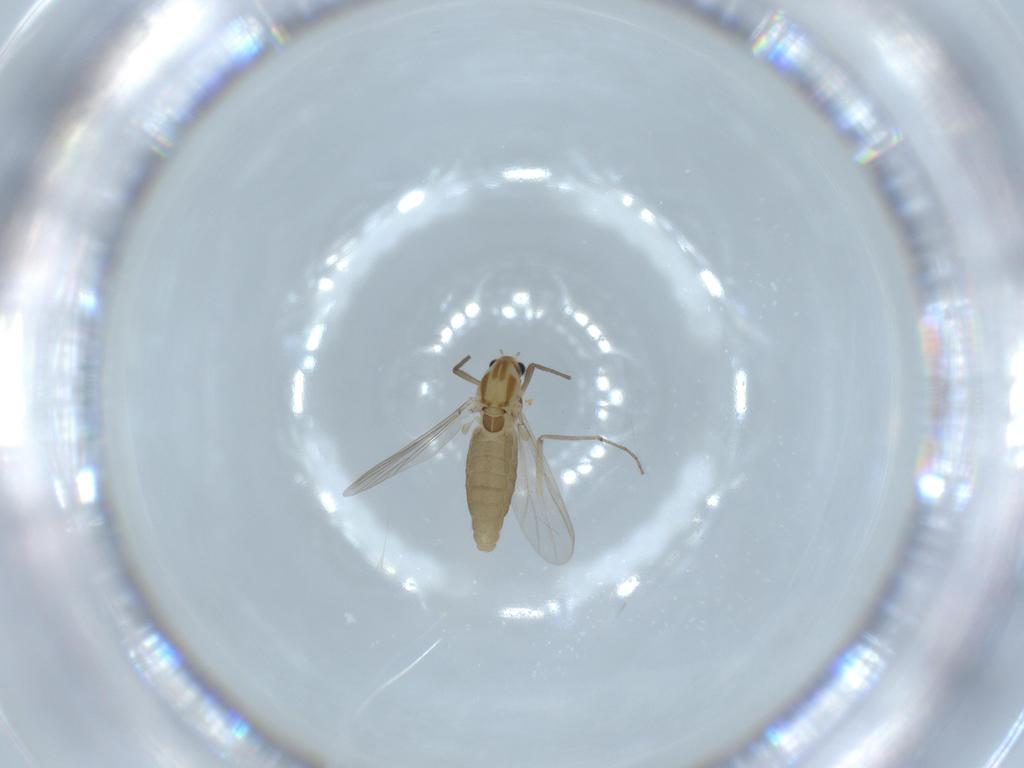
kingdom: Animalia
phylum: Arthropoda
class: Insecta
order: Diptera
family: Chironomidae
